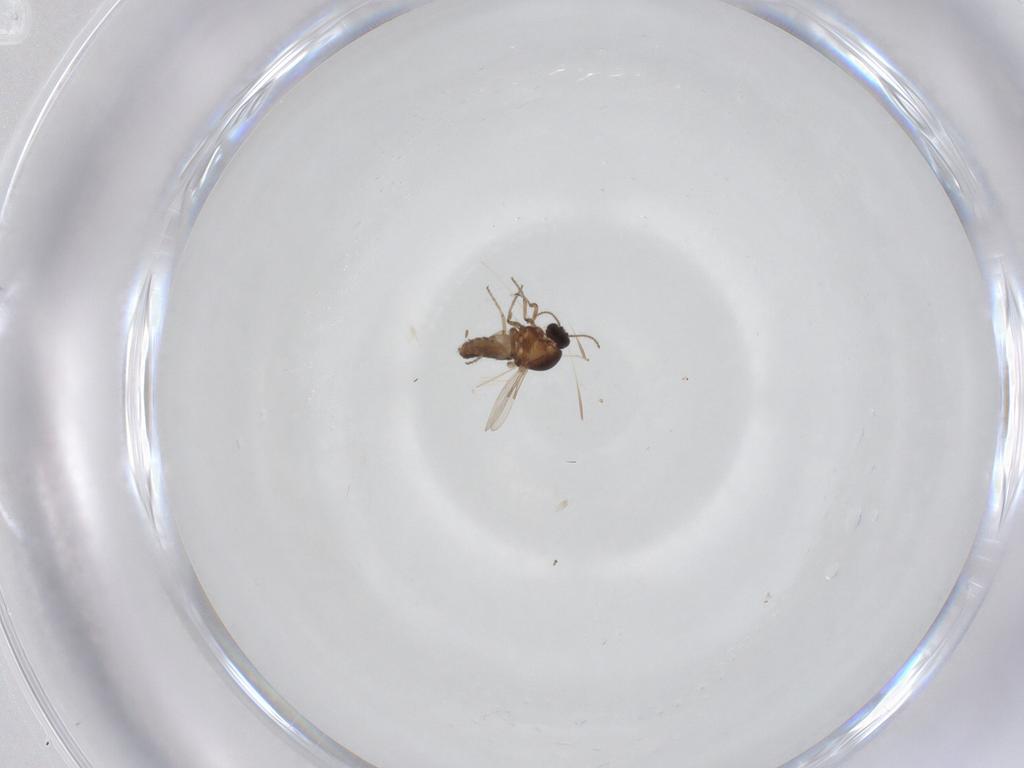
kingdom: Animalia
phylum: Arthropoda
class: Insecta
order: Diptera
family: Ceratopogonidae
